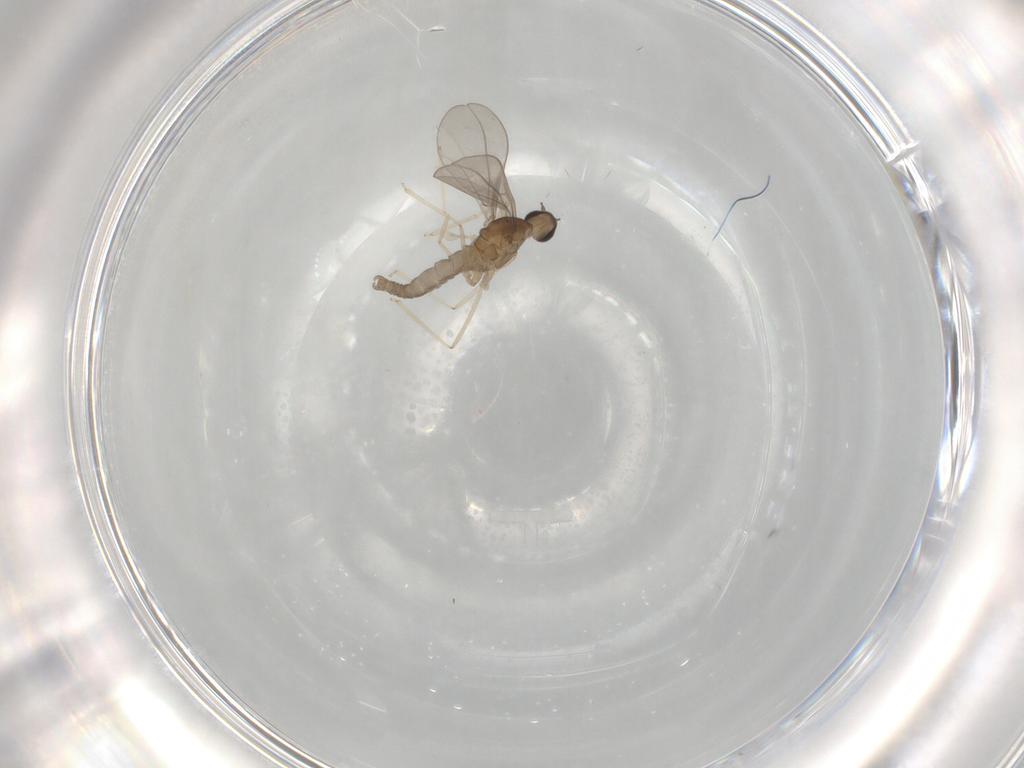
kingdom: Animalia
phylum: Arthropoda
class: Insecta
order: Diptera
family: Cecidomyiidae
